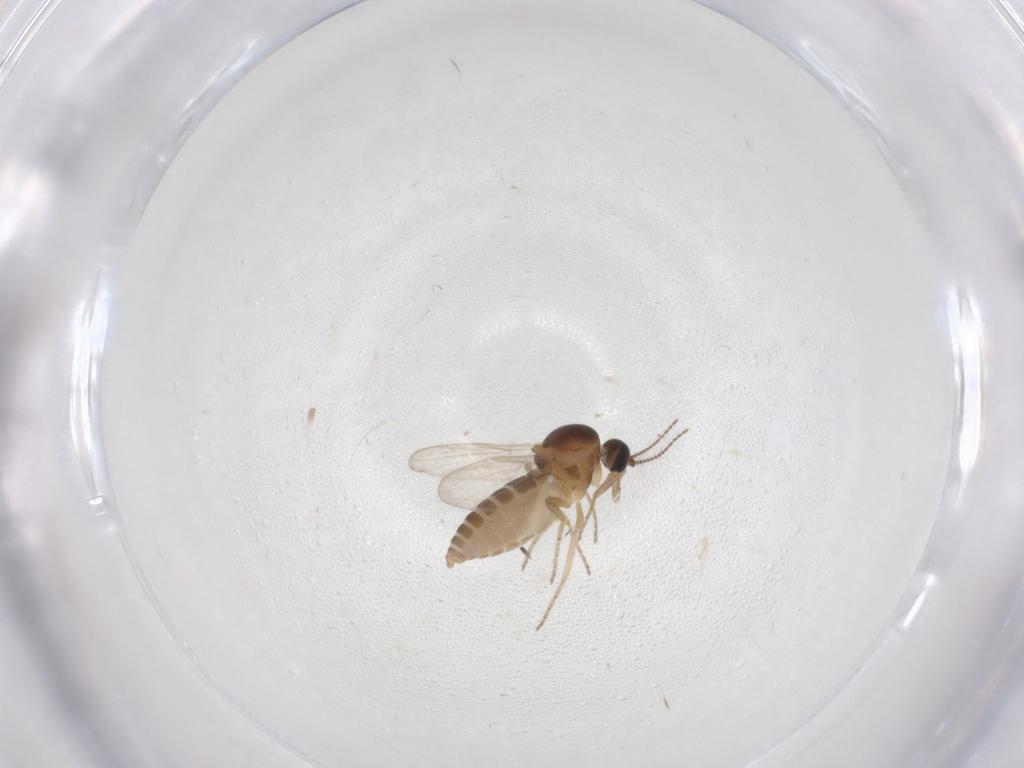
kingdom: Animalia
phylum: Arthropoda
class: Insecta
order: Diptera
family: Ceratopogonidae
